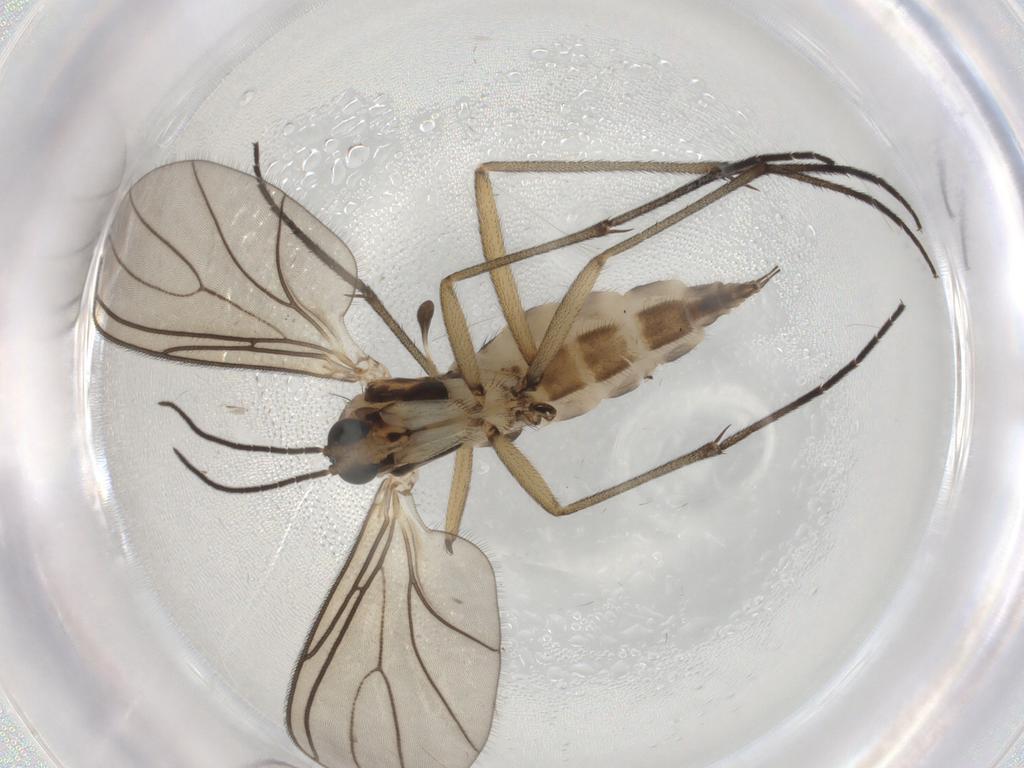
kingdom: Animalia
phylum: Arthropoda
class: Insecta
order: Diptera
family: Sciaridae
